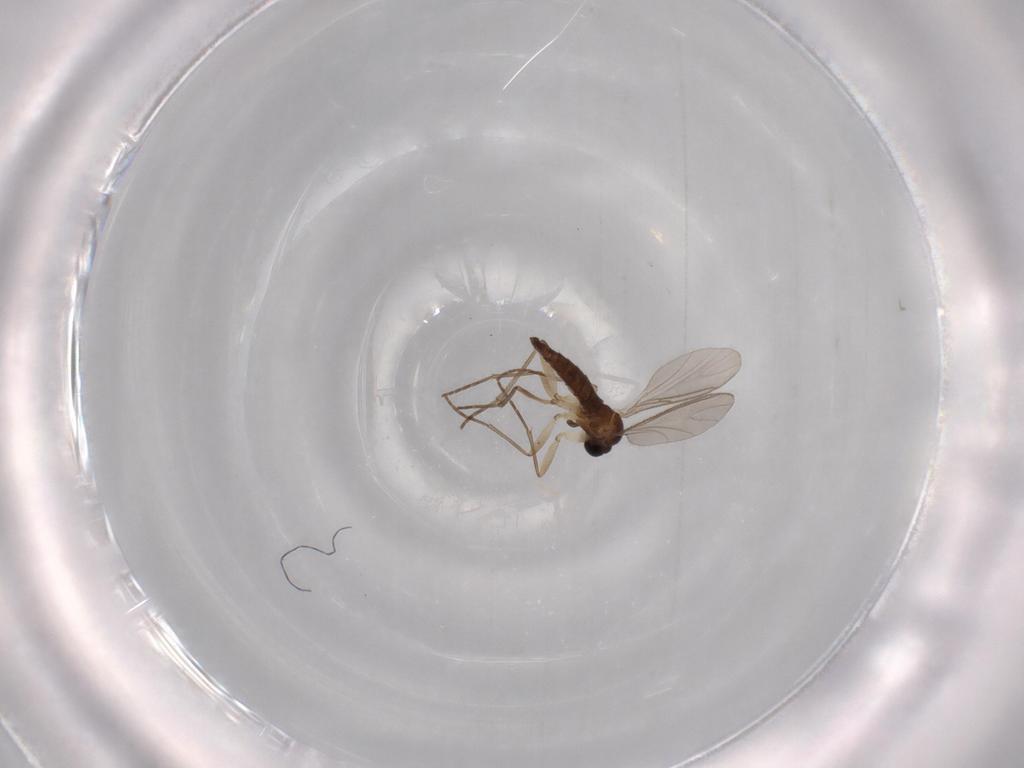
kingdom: Animalia
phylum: Arthropoda
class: Insecta
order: Diptera
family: Sciaridae
